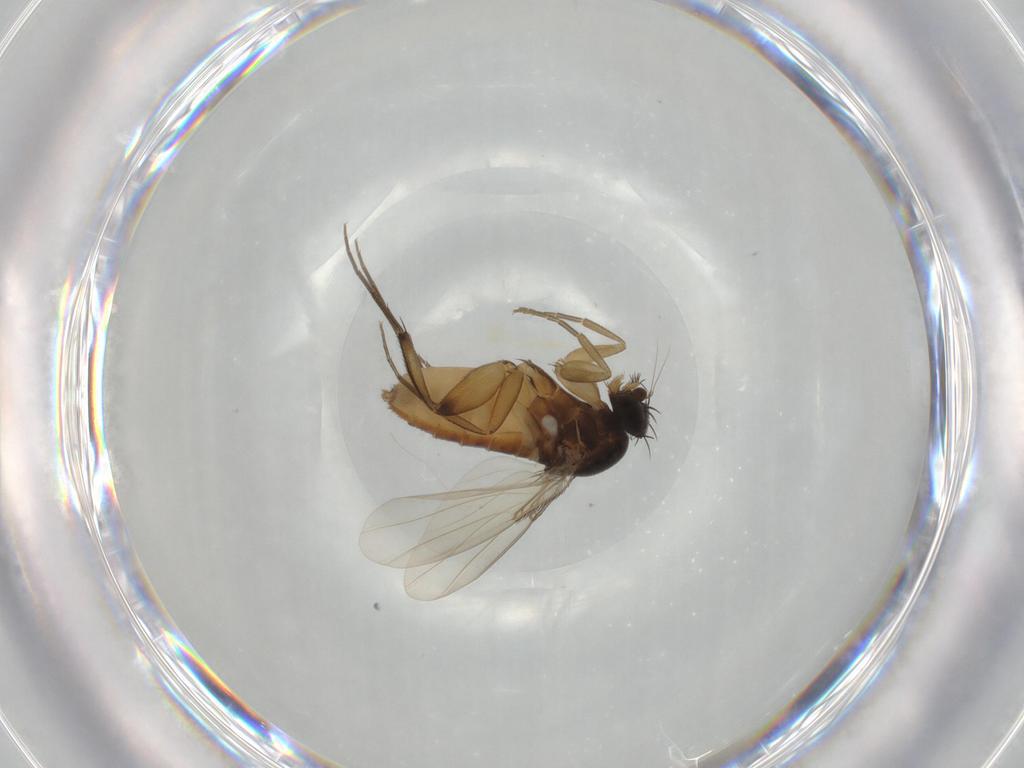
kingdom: Animalia
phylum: Arthropoda
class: Insecta
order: Diptera
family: Phoridae
